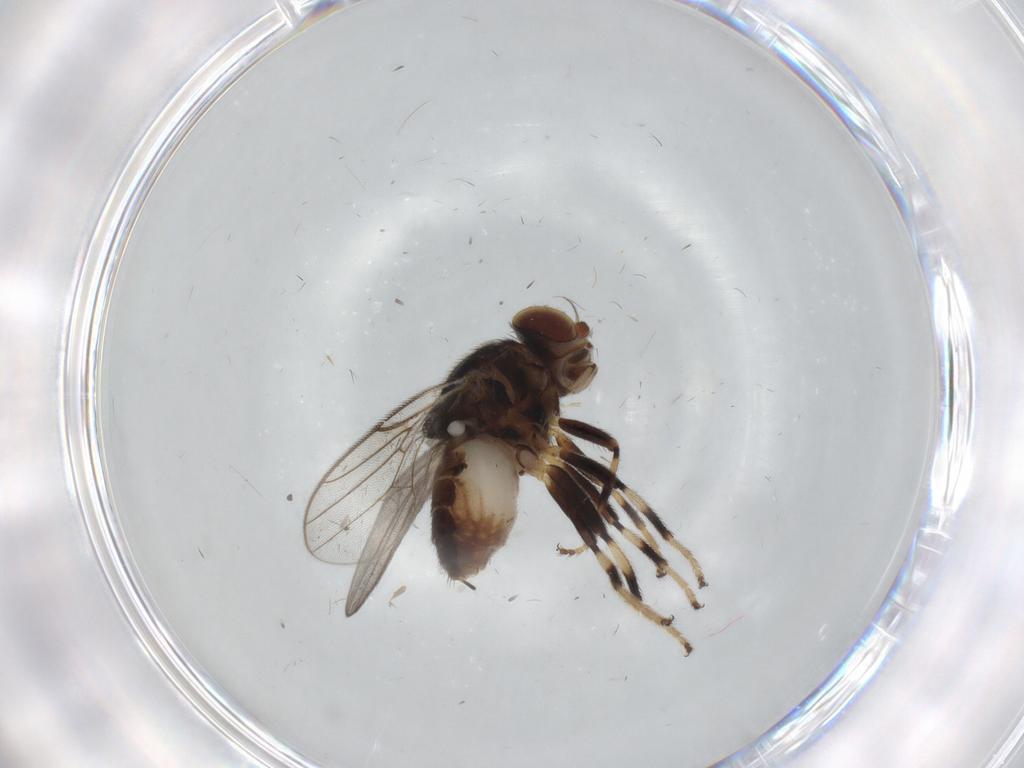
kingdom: Animalia
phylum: Arthropoda
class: Insecta
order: Diptera
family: Chloropidae
